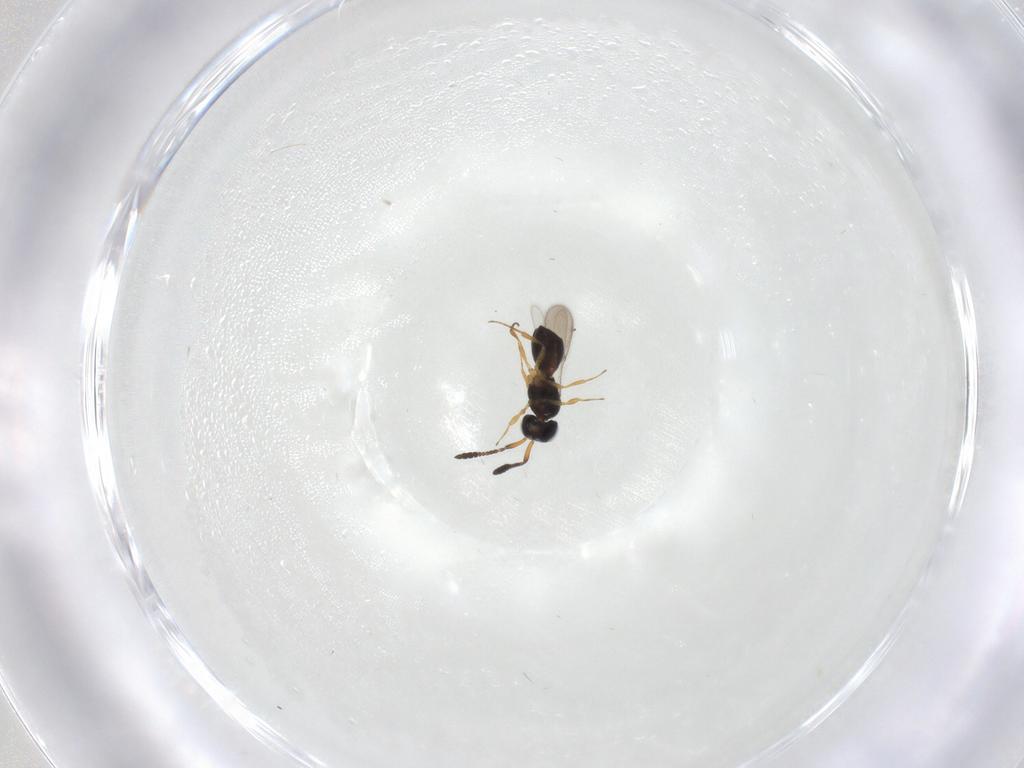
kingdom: Animalia
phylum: Arthropoda
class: Insecta
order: Hymenoptera
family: Scelionidae
